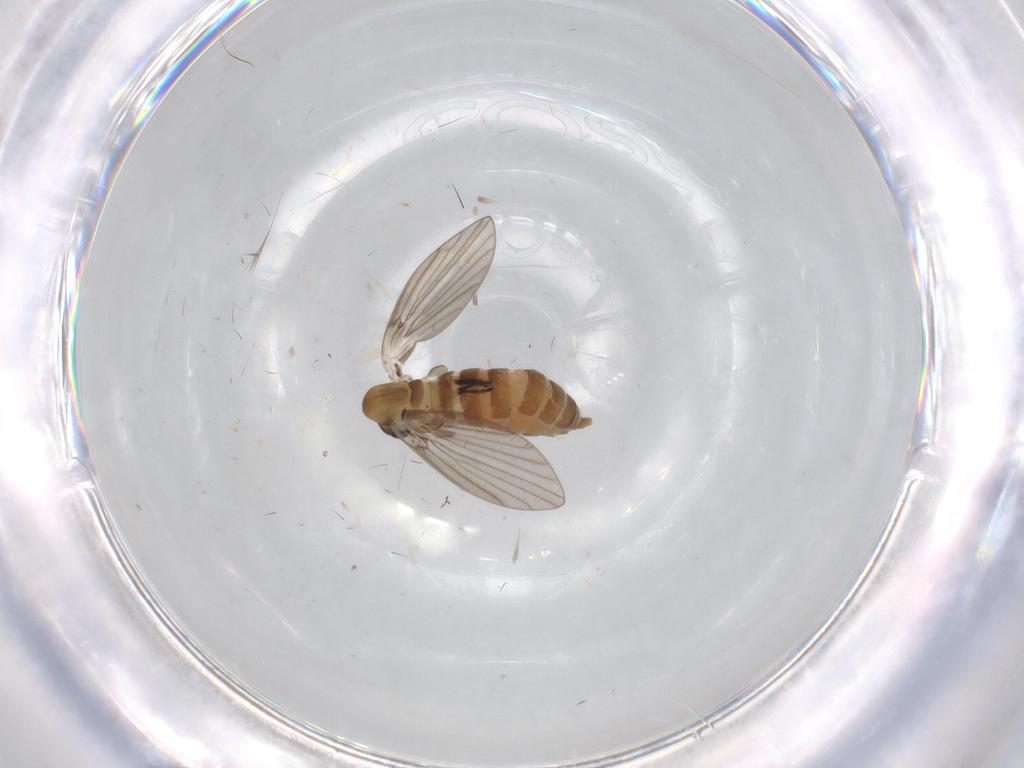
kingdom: Animalia
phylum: Arthropoda
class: Insecta
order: Diptera
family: Sciaridae
